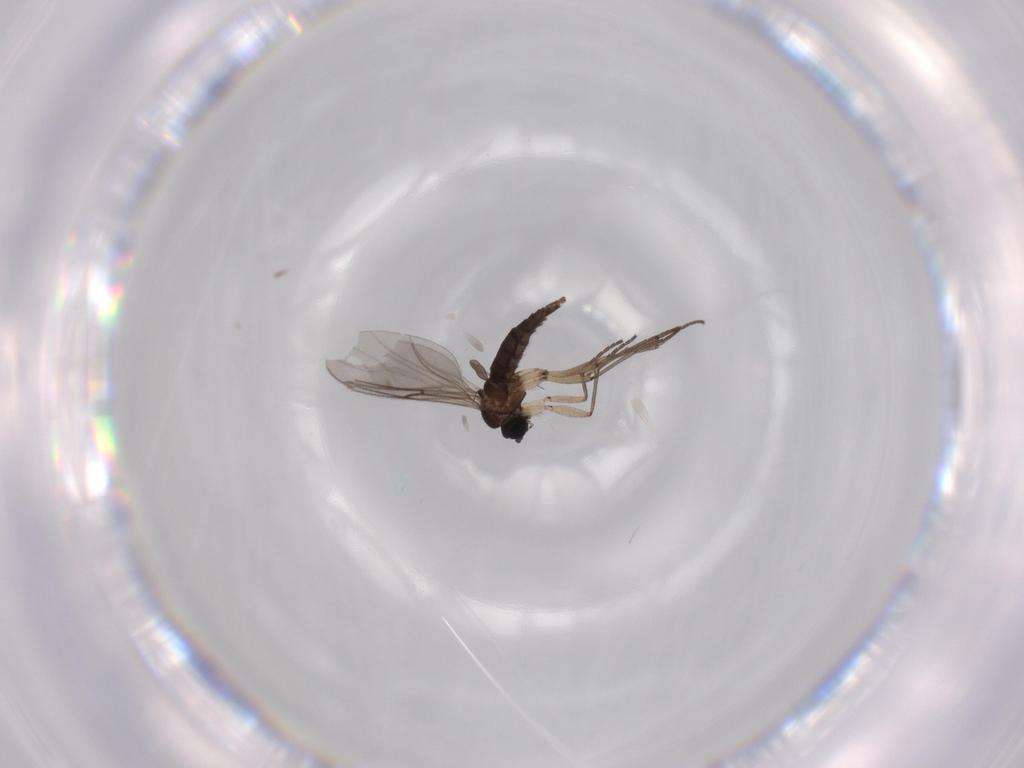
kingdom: Animalia
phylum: Arthropoda
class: Insecta
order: Diptera
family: Sciaridae
